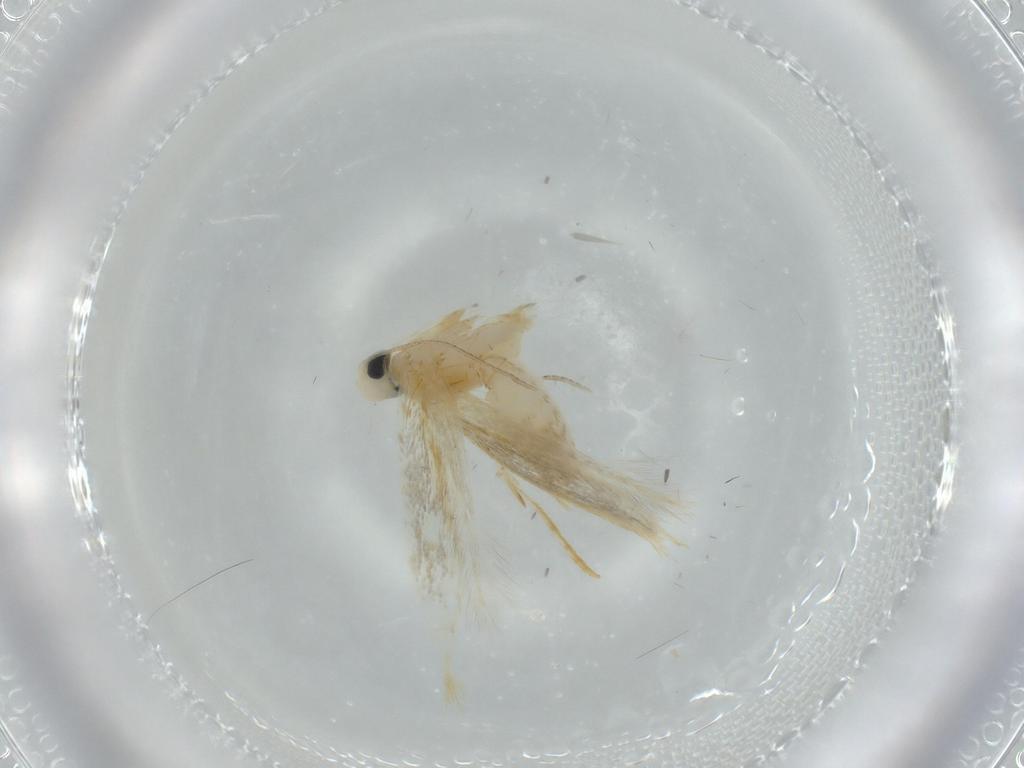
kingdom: Animalia
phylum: Arthropoda
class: Insecta
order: Lepidoptera
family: Tineidae
